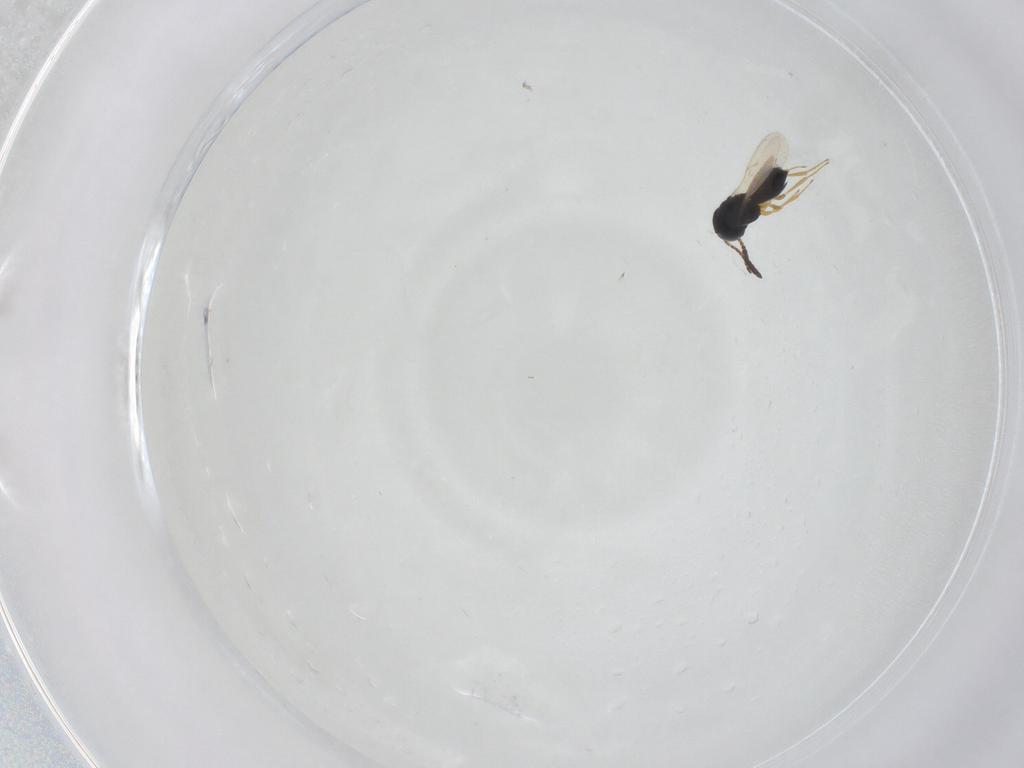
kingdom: Animalia
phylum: Arthropoda
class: Insecta
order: Hymenoptera
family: Scelionidae
